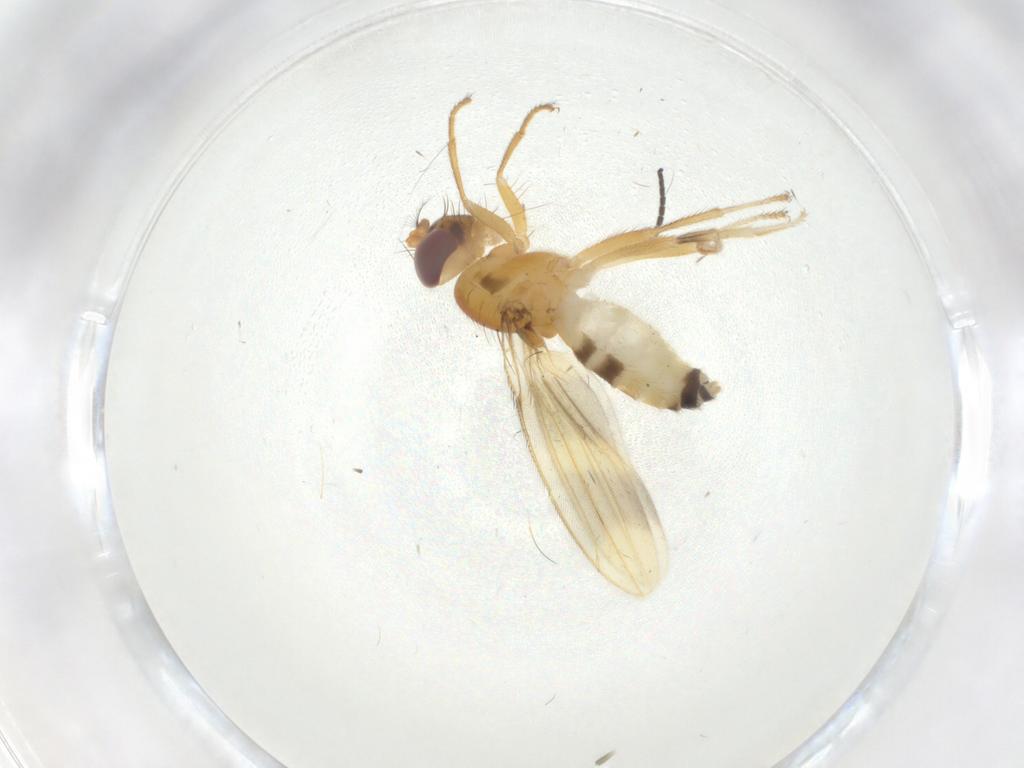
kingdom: Animalia
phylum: Arthropoda
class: Insecta
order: Diptera
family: Periscelididae
